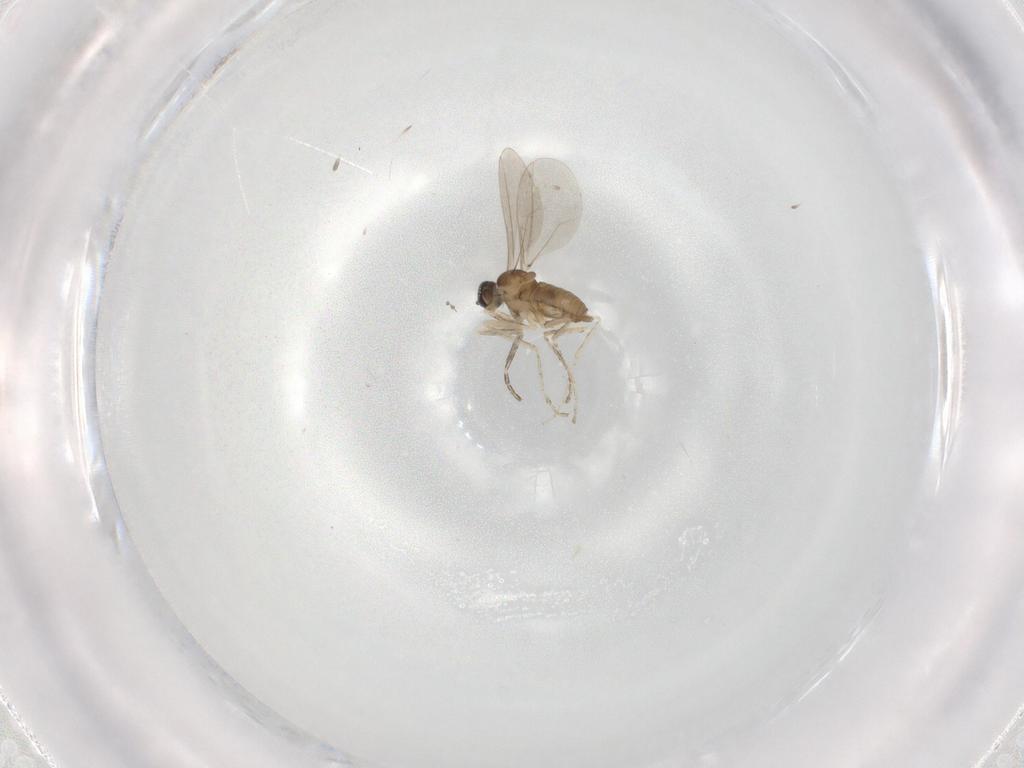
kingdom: Animalia
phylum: Arthropoda
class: Insecta
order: Diptera
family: Cecidomyiidae
